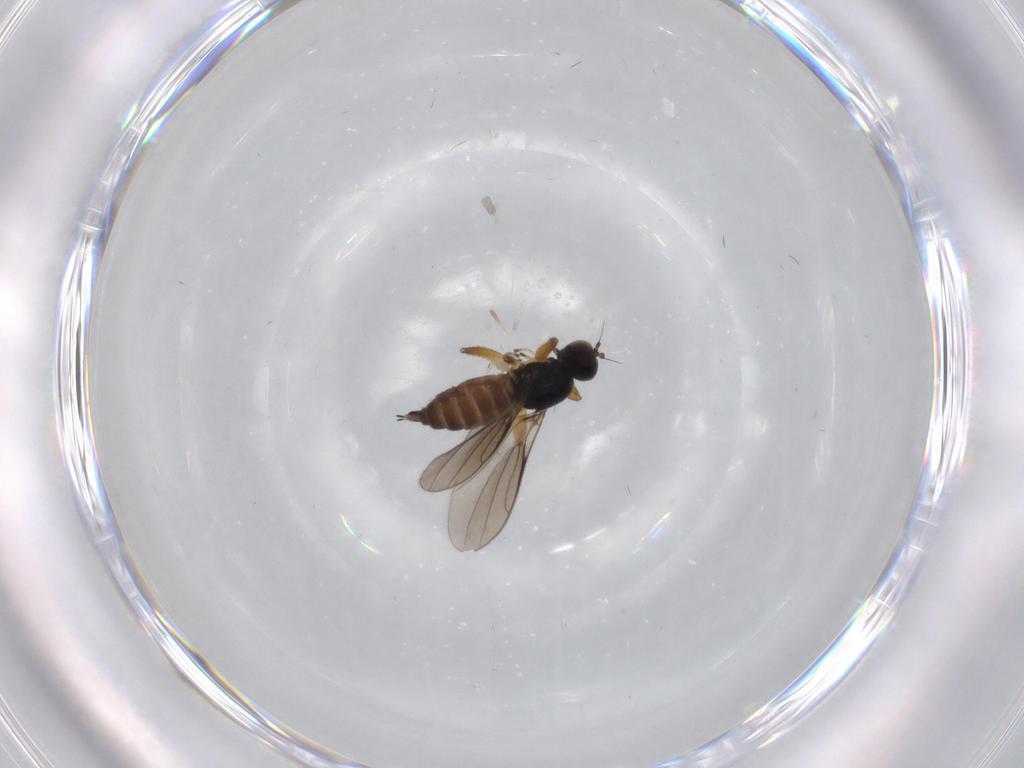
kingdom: Animalia
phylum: Arthropoda
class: Insecta
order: Diptera
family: Hybotidae
